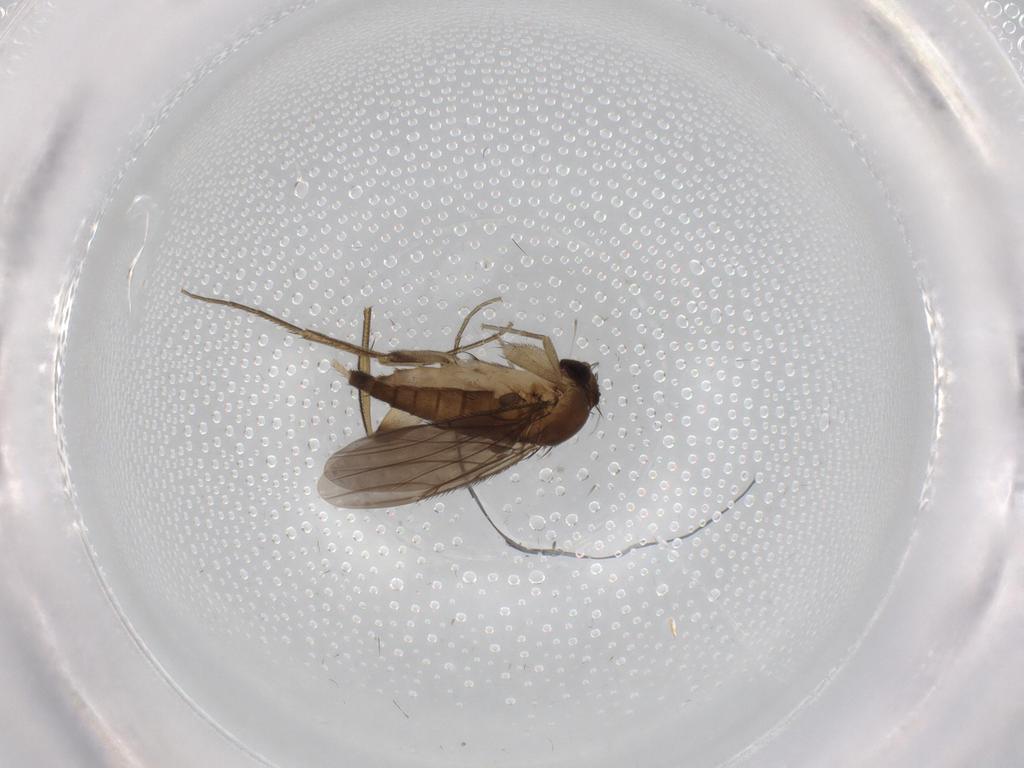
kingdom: Animalia
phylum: Arthropoda
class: Insecta
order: Diptera
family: Phoridae
